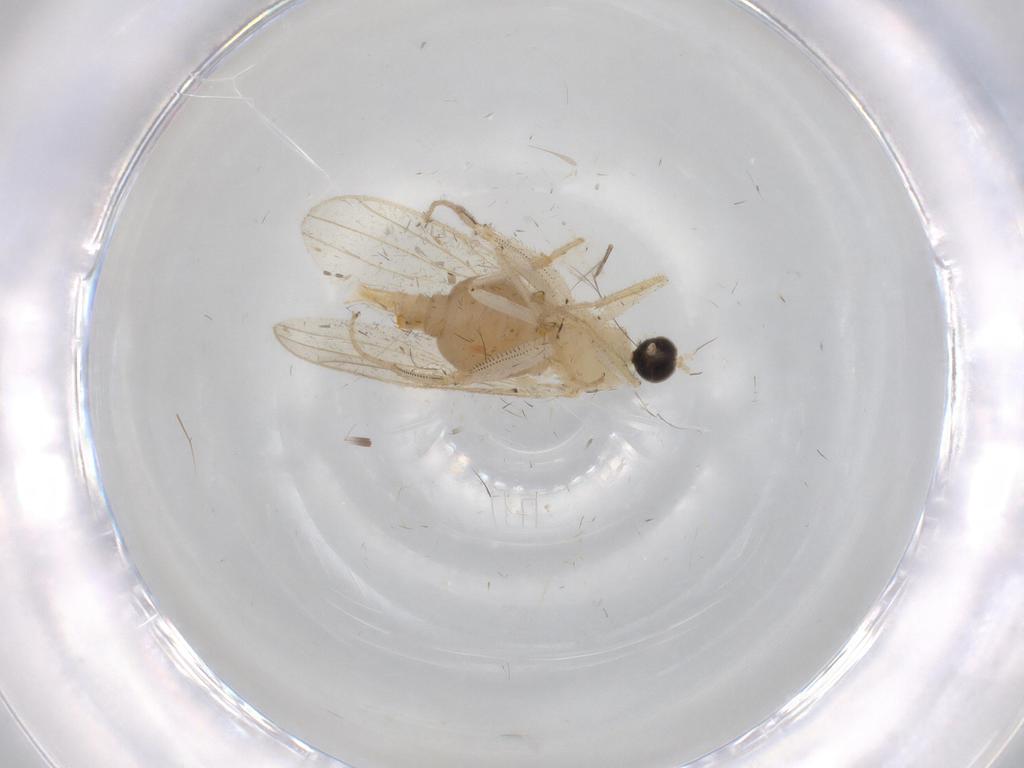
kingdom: Animalia
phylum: Arthropoda
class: Insecta
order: Diptera
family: Hybotidae
